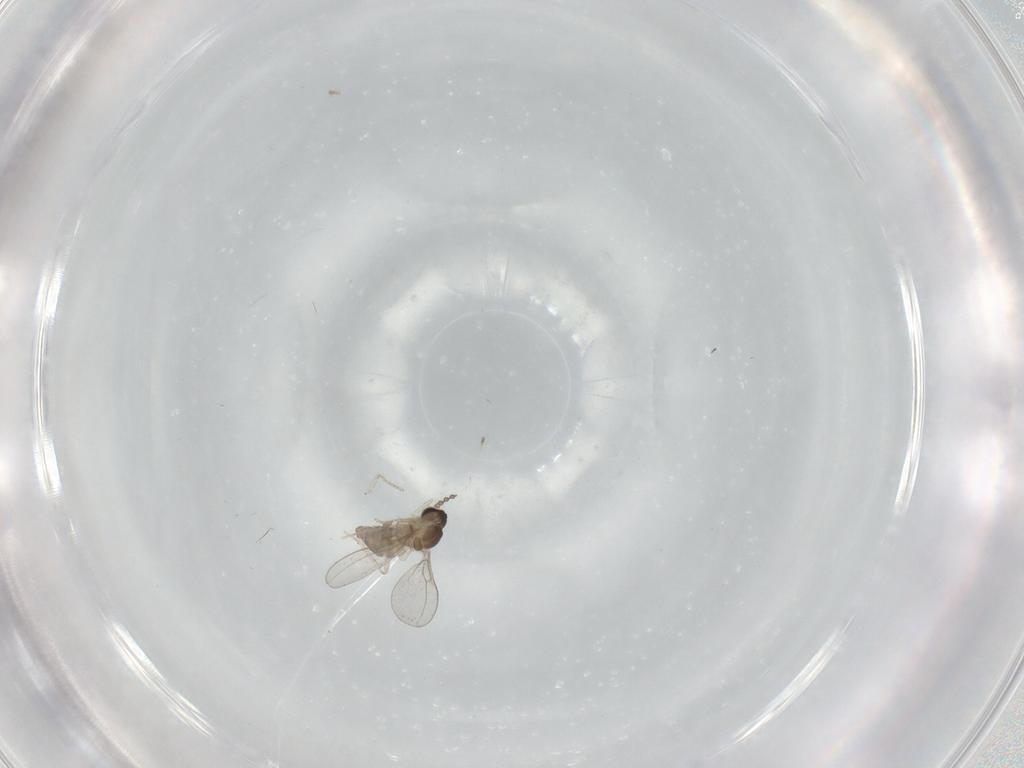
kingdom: Animalia
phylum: Arthropoda
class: Insecta
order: Diptera
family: Cecidomyiidae
